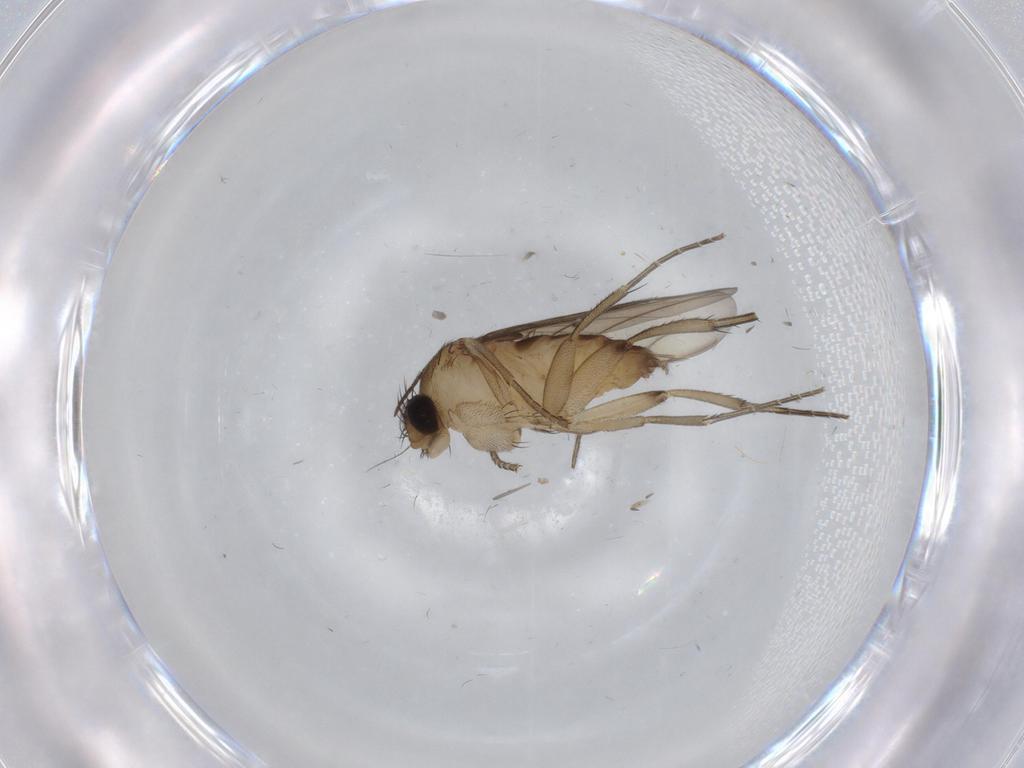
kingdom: Animalia
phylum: Arthropoda
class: Insecta
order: Diptera
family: Phoridae
